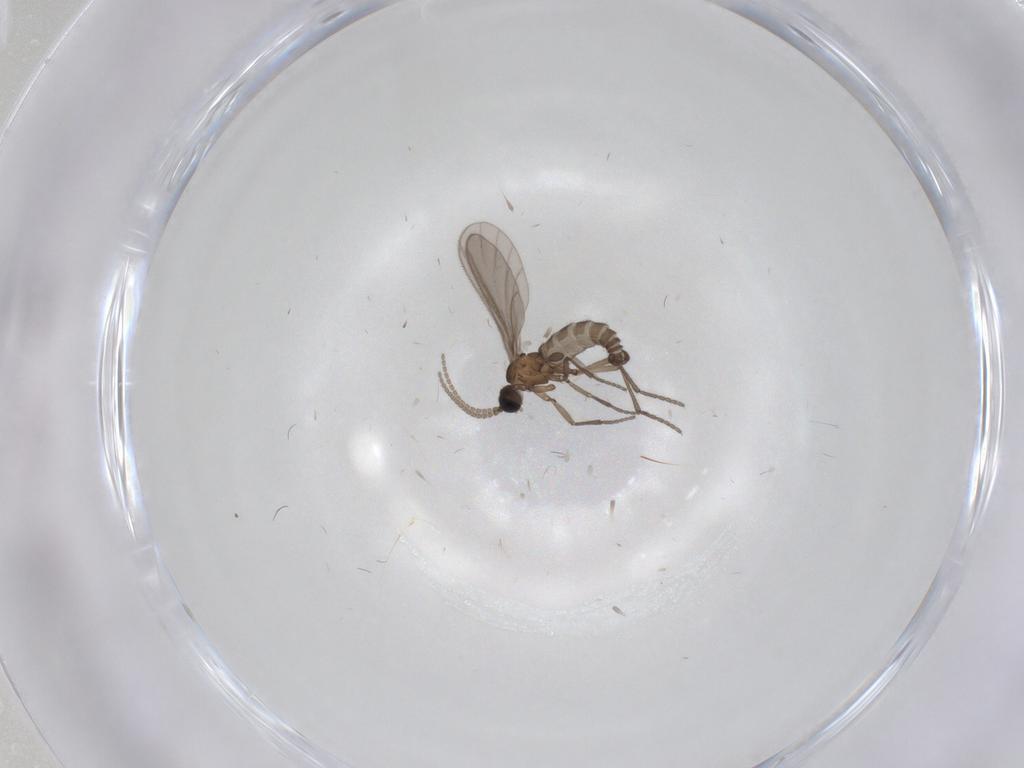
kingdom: Animalia
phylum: Arthropoda
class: Insecta
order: Diptera
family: Sciaridae
